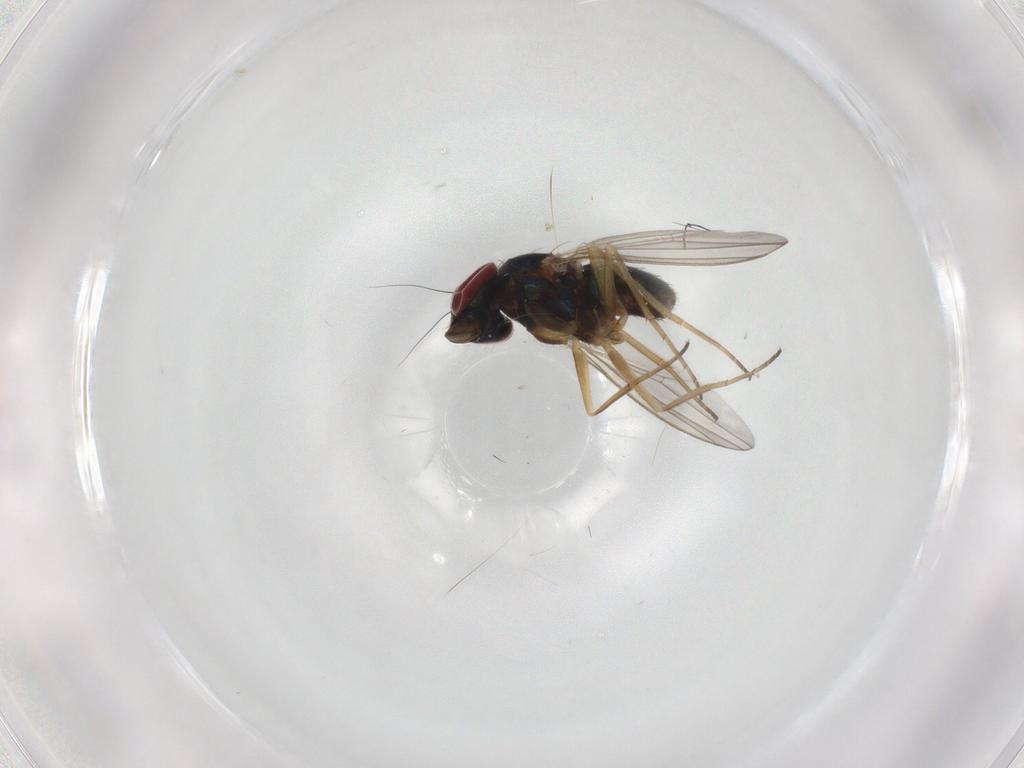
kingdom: Animalia
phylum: Arthropoda
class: Insecta
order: Diptera
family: Dolichopodidae
